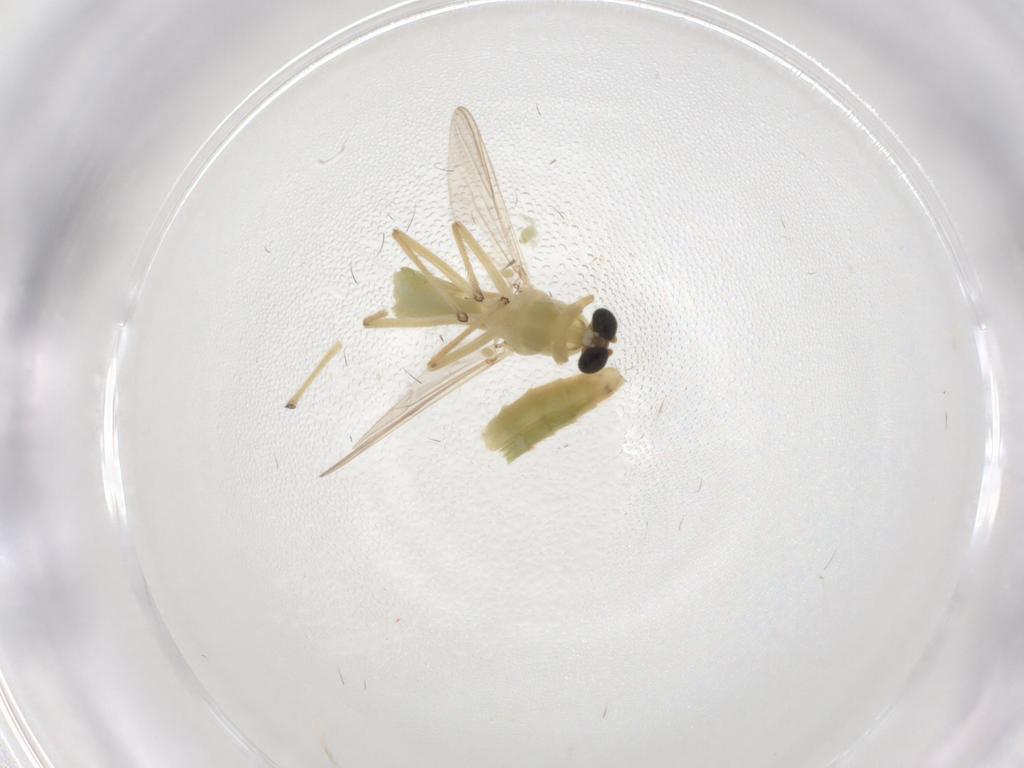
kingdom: Animalia
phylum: Arthropoda
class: Insecta
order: Diptera
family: Chironomidae
